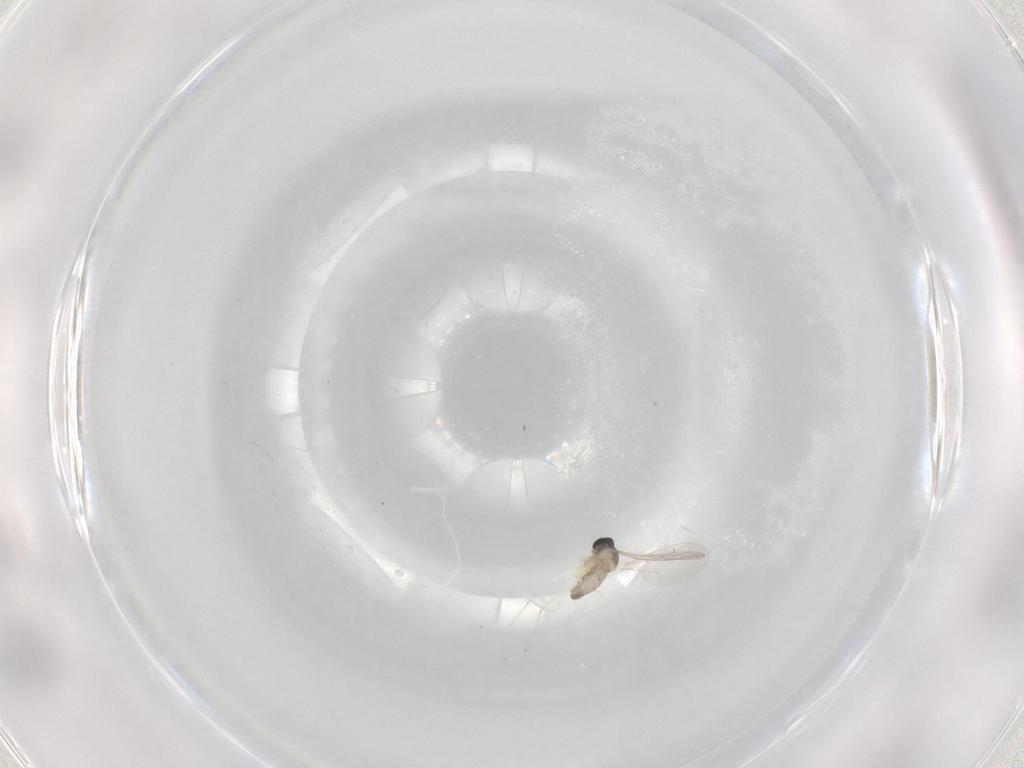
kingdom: Animalia
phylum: Arthropoda
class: Insecta
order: Diptera
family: Cecidomyiidae
